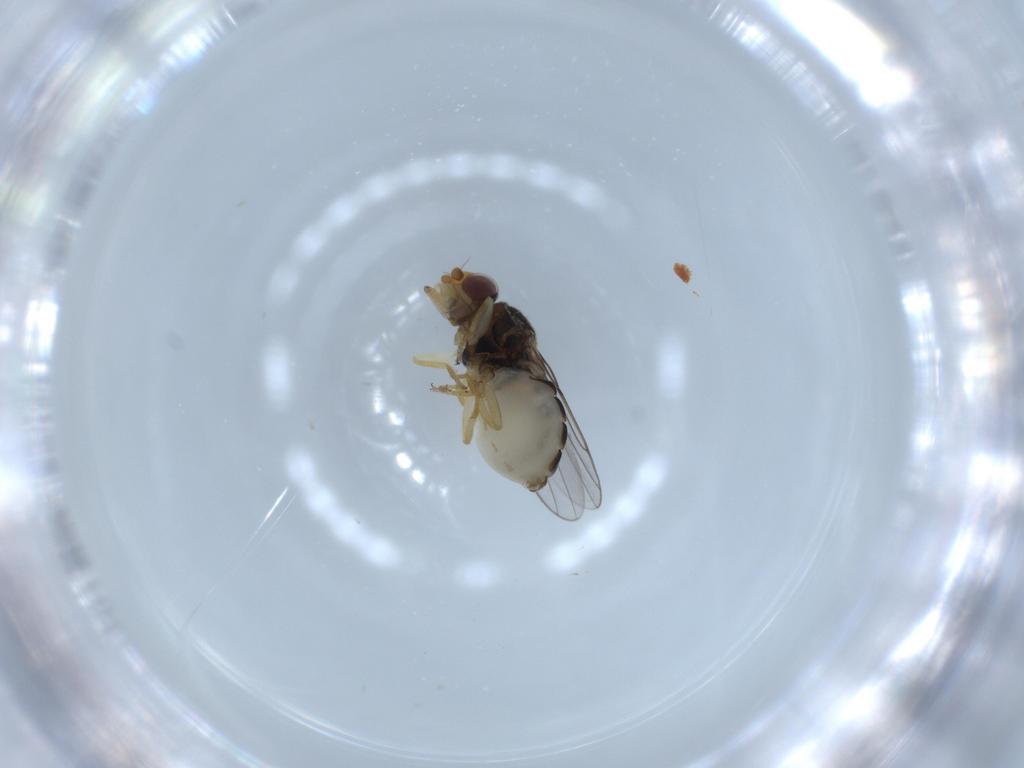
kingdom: Animalia
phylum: Arthropoda
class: Insecta
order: Diptera
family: Chloropidae
